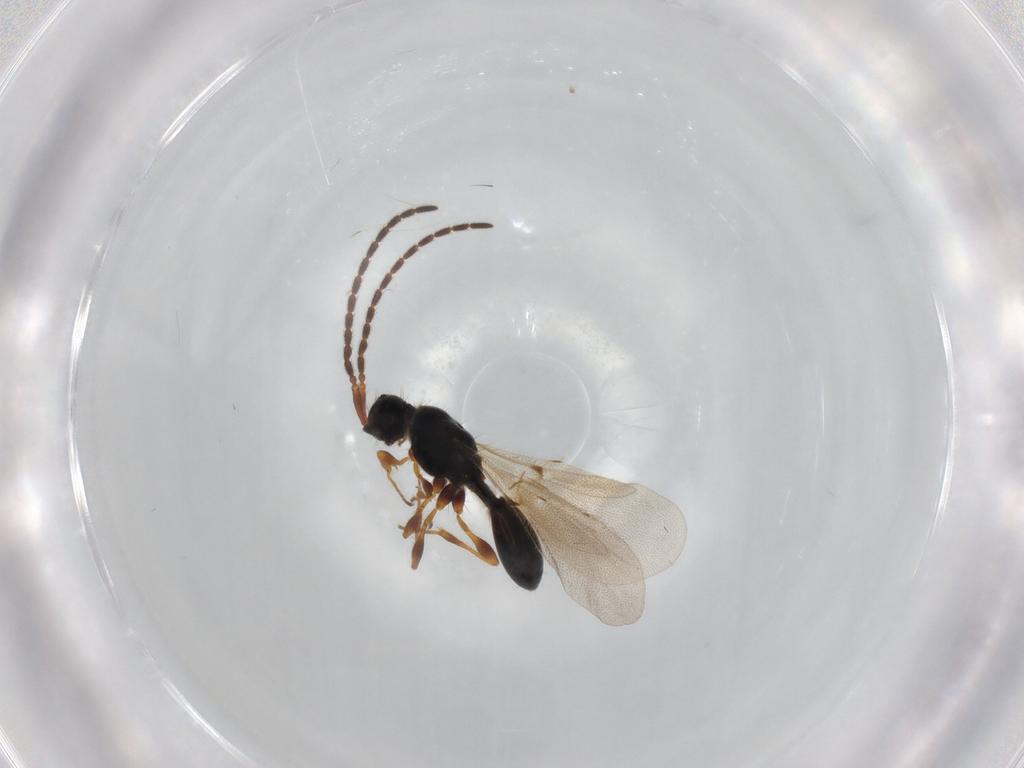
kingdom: Animalia
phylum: Arthropoda
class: Insecta
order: Hymenoptera
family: Diapriidae
